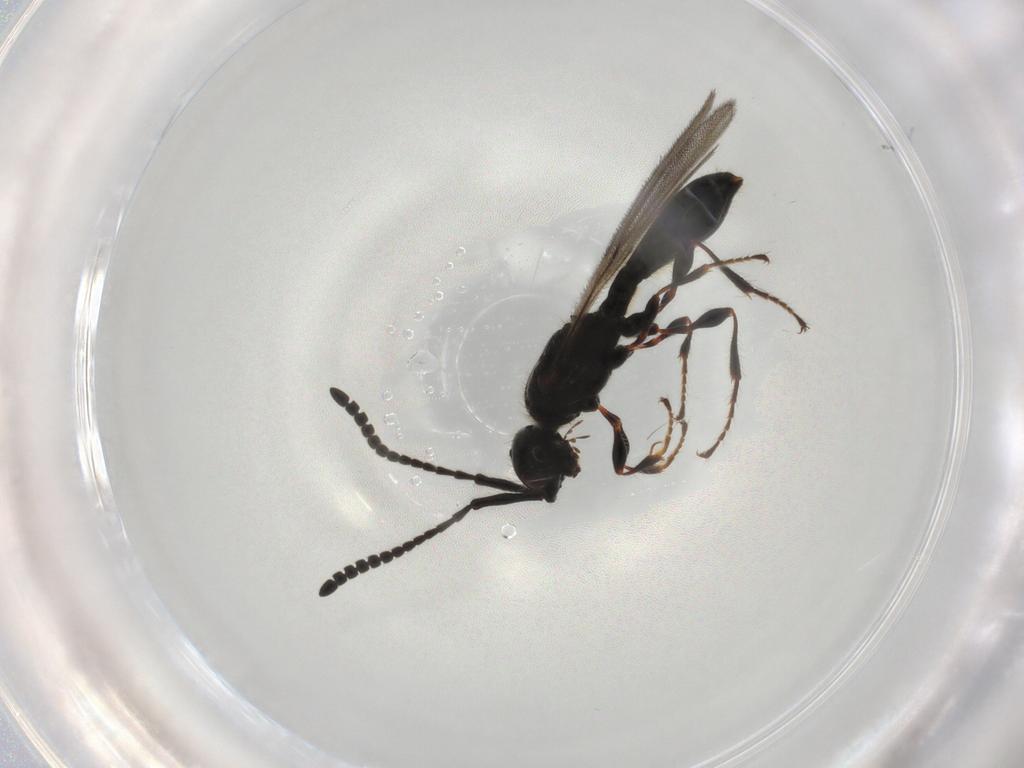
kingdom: Animalia
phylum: Arthropoda
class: Insecta
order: Hymenoptera
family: Diapriidae
